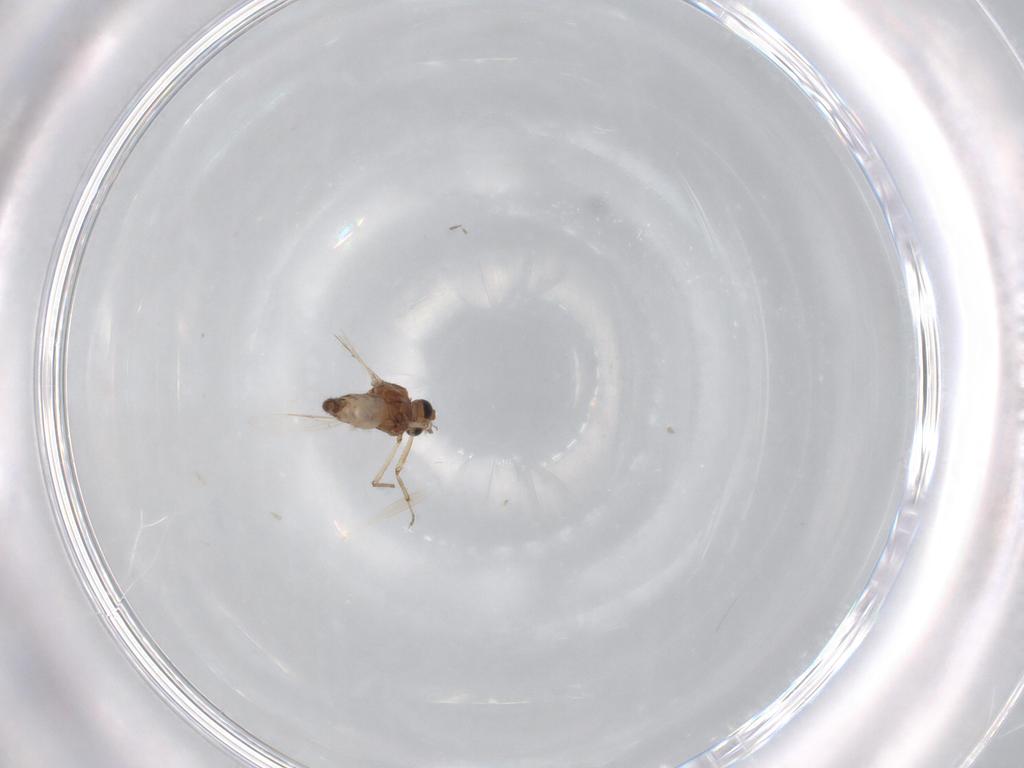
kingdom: Animalia
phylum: Arthropoda
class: Insecta
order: Diptera
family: Ceratopogonidae
